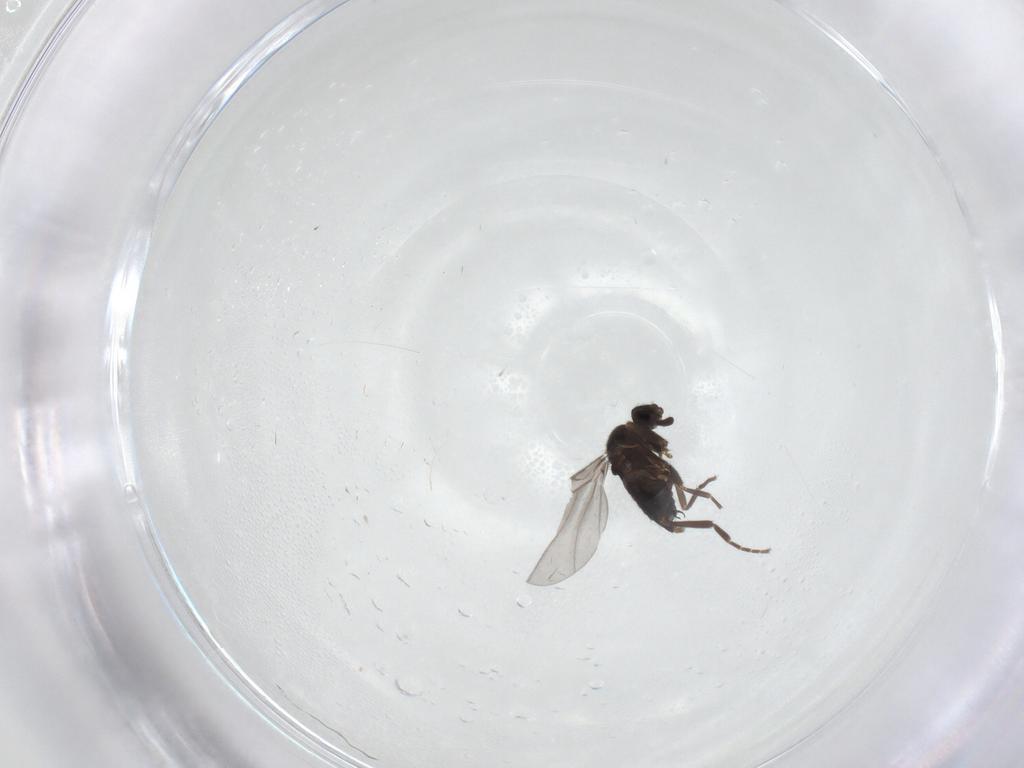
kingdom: Animalia
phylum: Arthropoda
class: Insecta
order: Diptera
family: Phoridae
